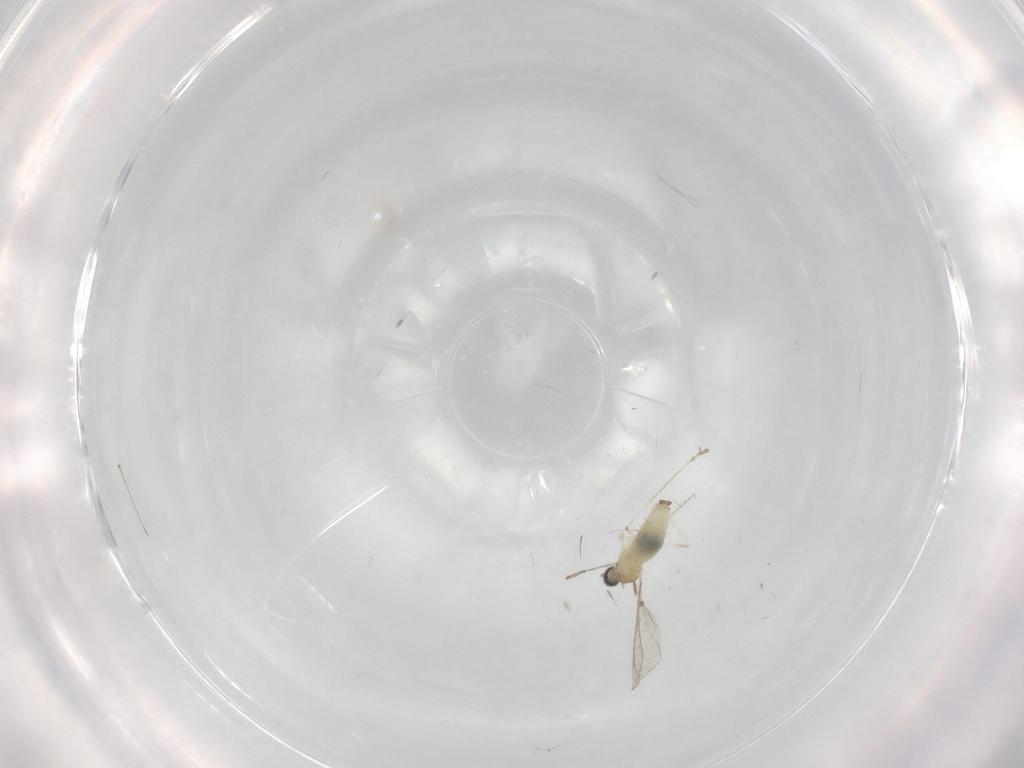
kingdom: Animalia
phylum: Arthropoda
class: Insecta
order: Diptera
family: Sciaridae
